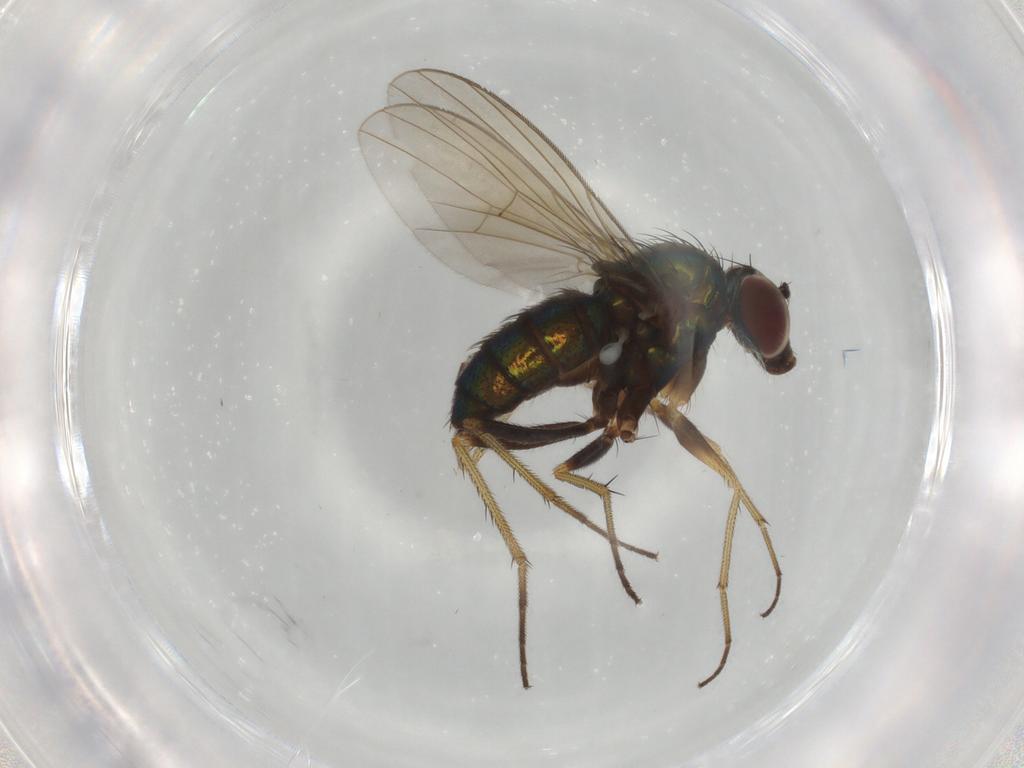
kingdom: Animalia
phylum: Arthropoda
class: Insecta
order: Diptera
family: Dolichopodidae
